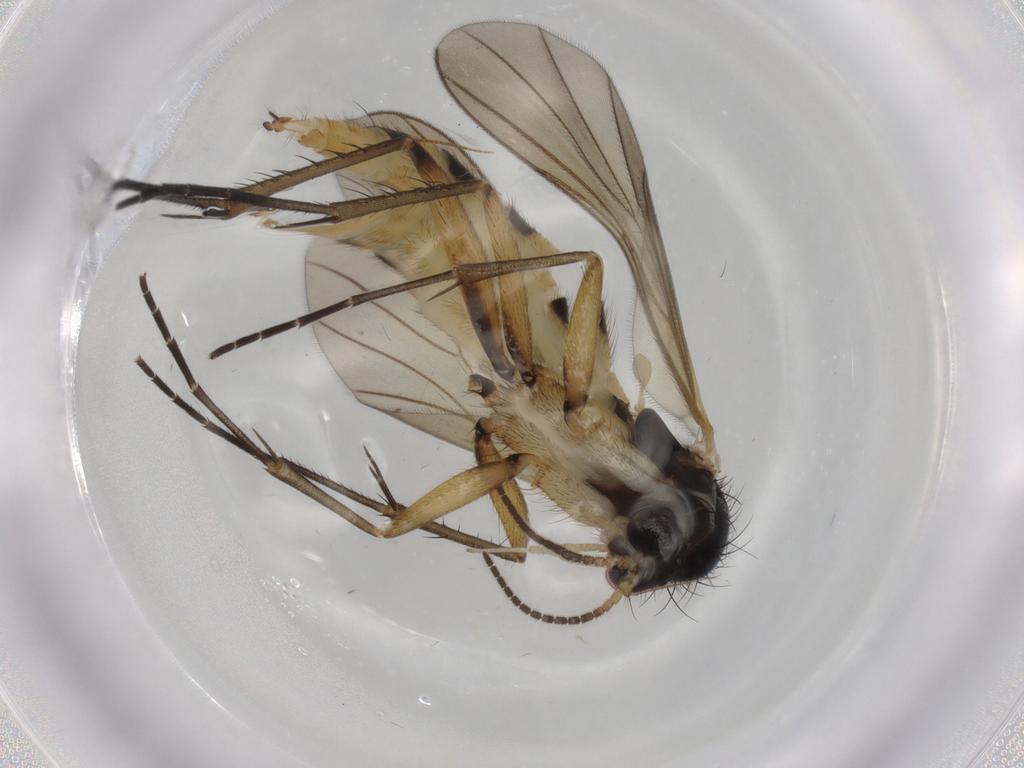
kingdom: Animalia
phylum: Arthropoda
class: Insecta
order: Diptera
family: Mycetophilidae
